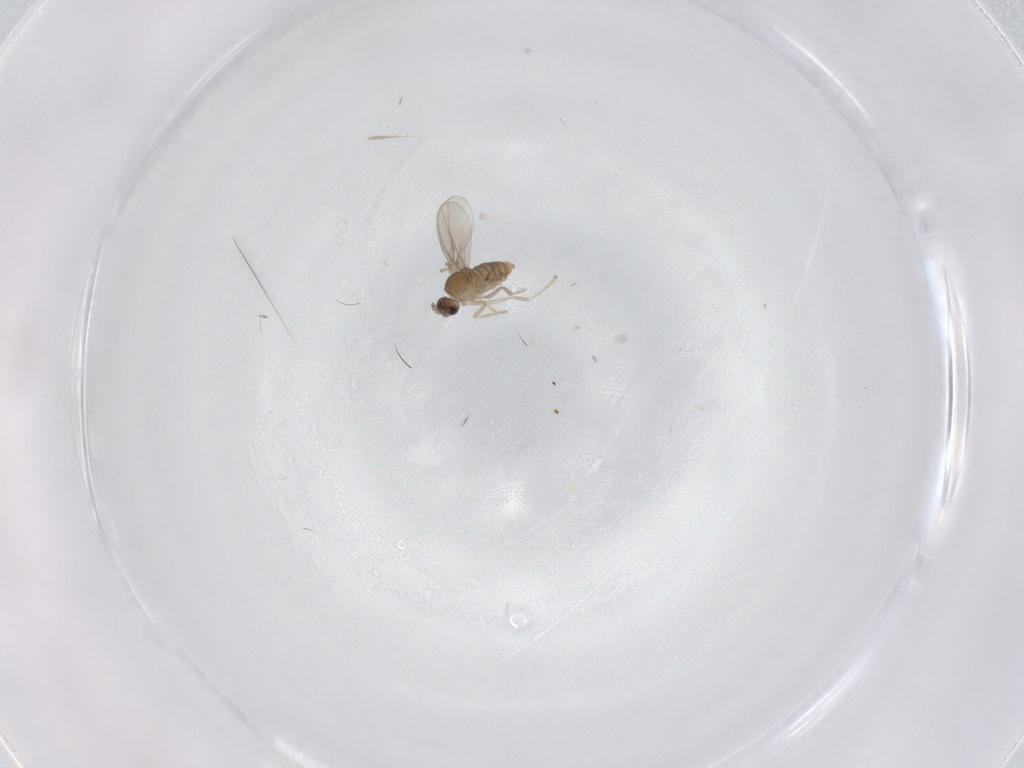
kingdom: Animalia
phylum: Arthropoda
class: Insecta
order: Diptera
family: Cecidomyiidae
